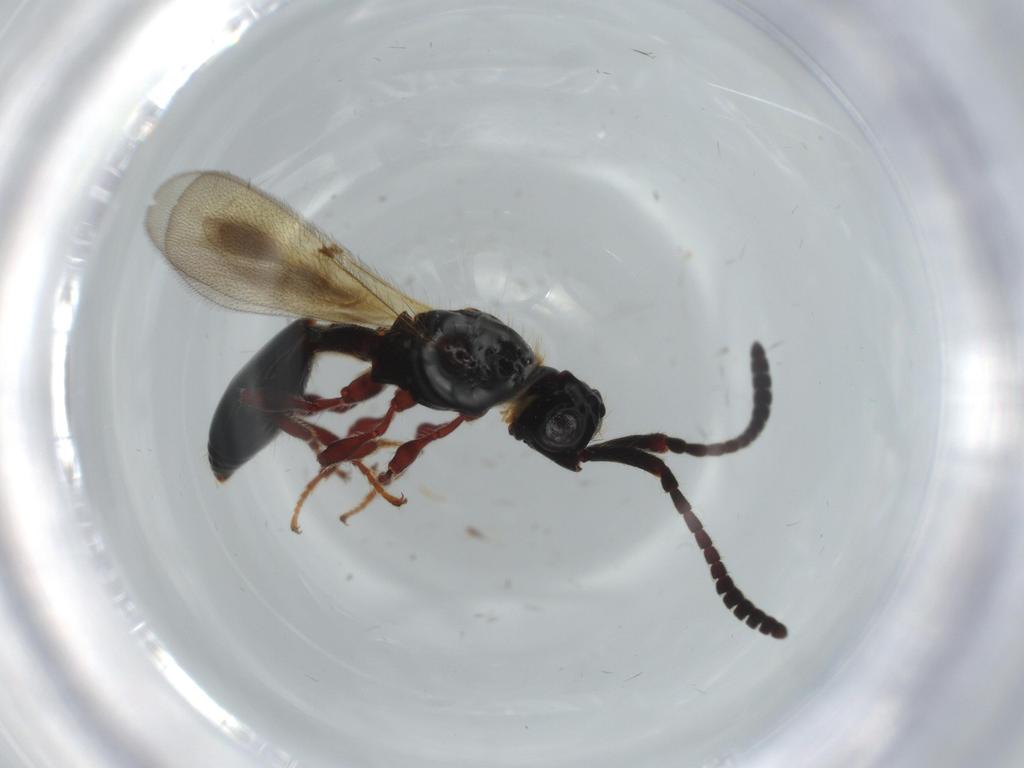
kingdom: Animalia
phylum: Arthropoda
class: Insecta
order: Hymenoptera
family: Diapriidae
